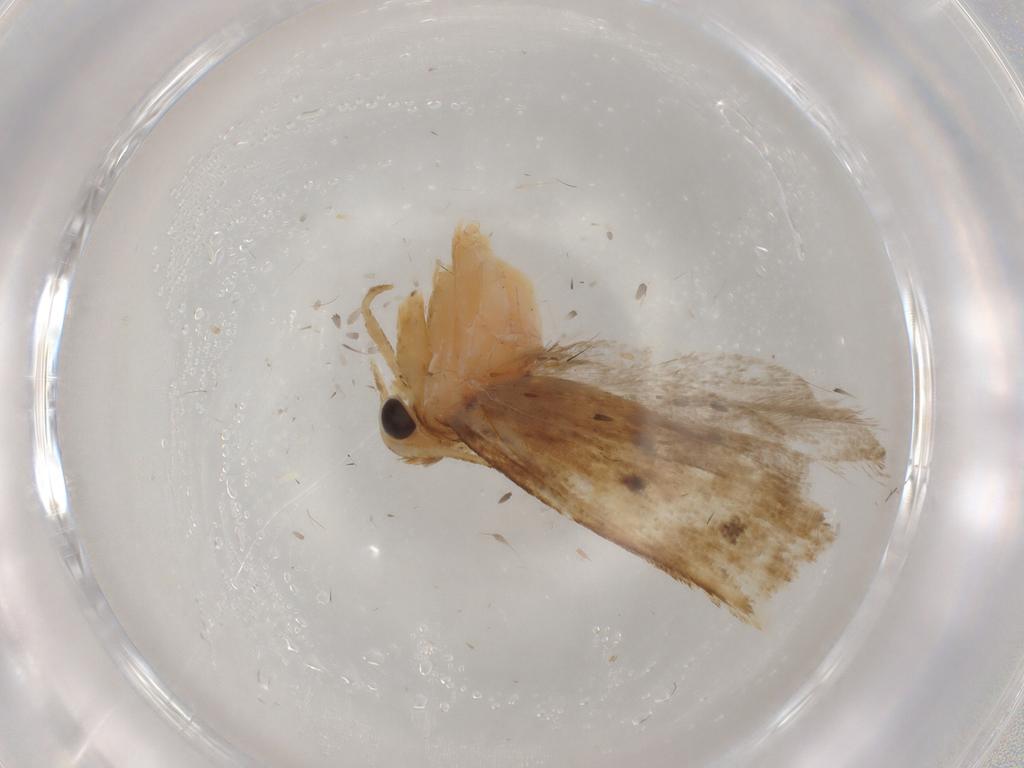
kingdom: Animalia
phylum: Arthropoda
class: Insecta
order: Lepidoptera
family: Gelechiidae
